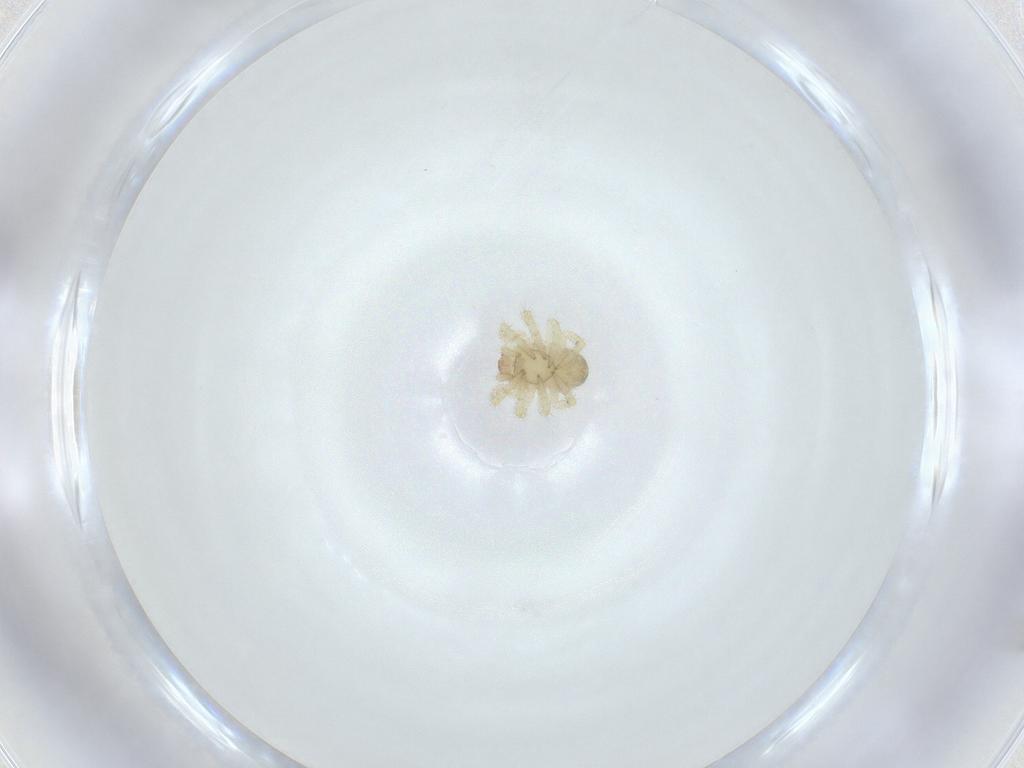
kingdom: Animalia
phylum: Arthropoda
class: Arachnida
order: Araneae
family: Theridiidae
